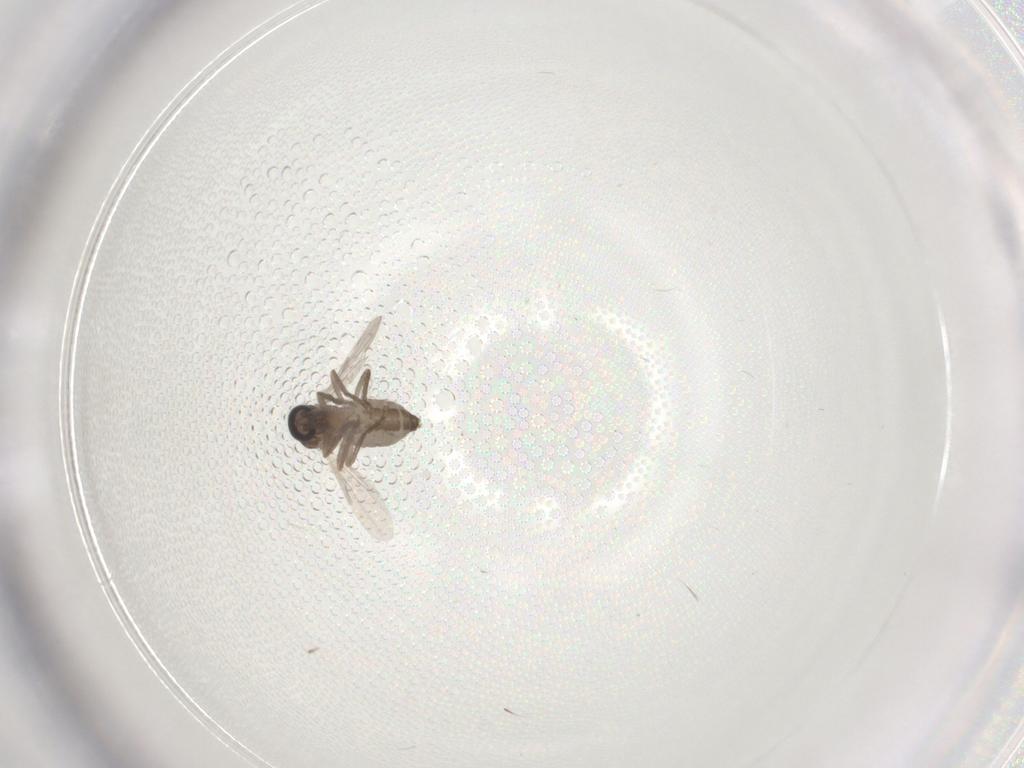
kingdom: Animalia
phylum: Arthropoda
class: Insecta
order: Diptera
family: Ceratopogonidae
